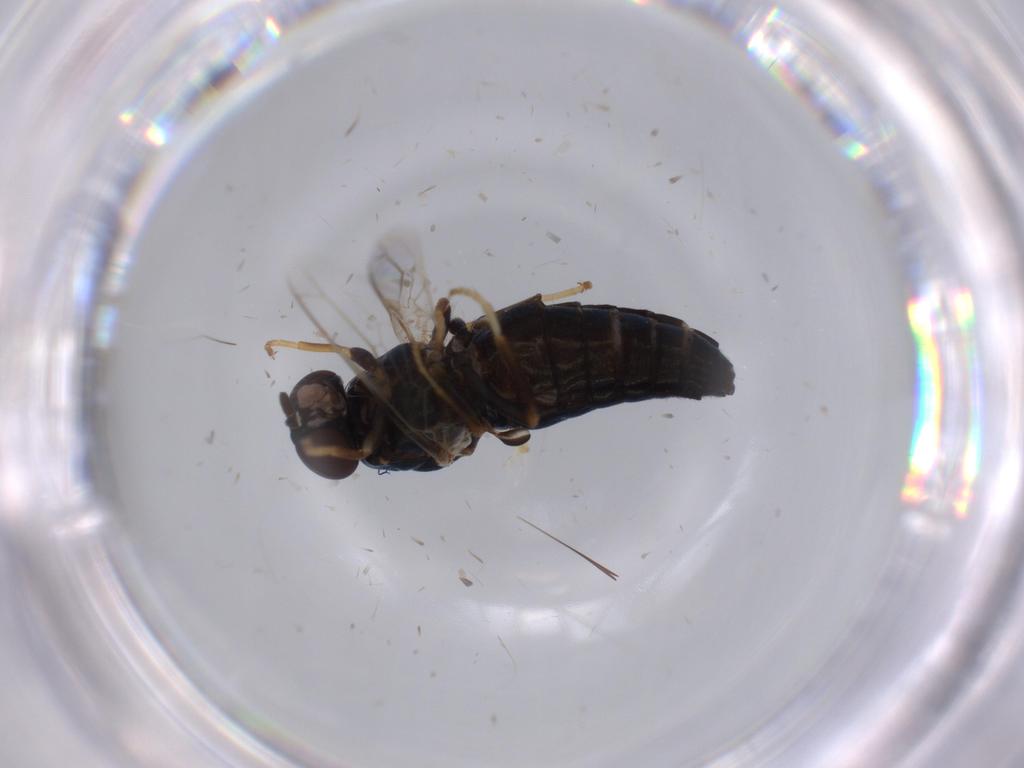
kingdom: Animalia
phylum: Arthropoda
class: Insecta
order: Diptera
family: Scenopinidae
